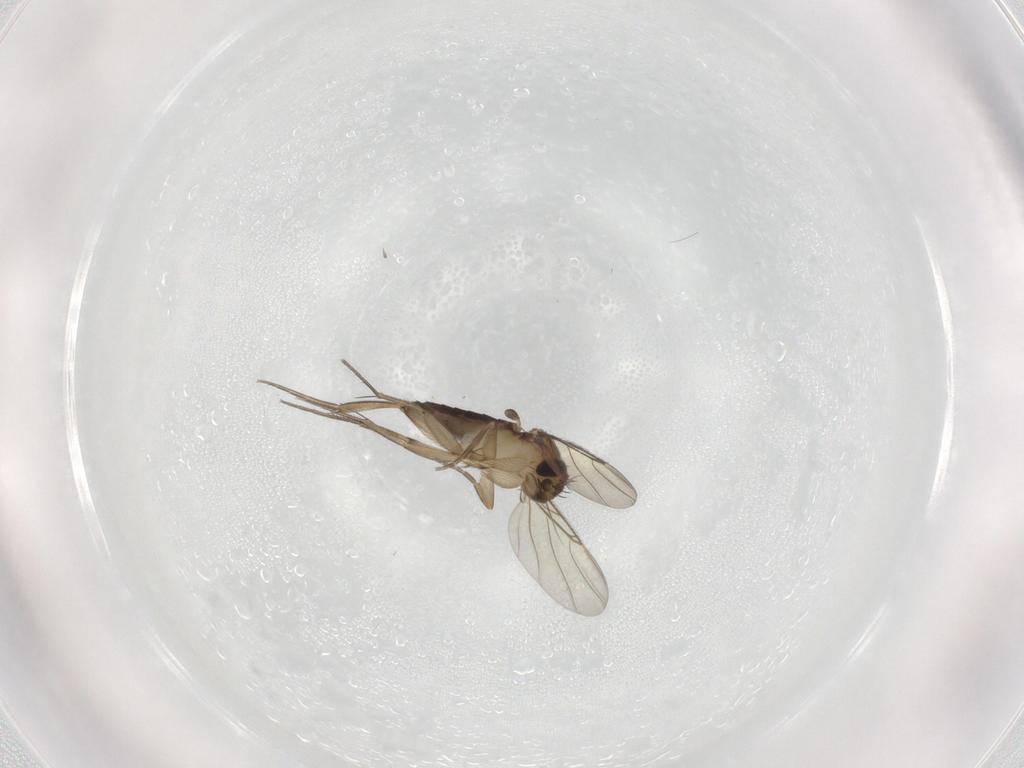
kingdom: Animalia
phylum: Arthropoda
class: Insecta
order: Diptera
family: Phoridae
